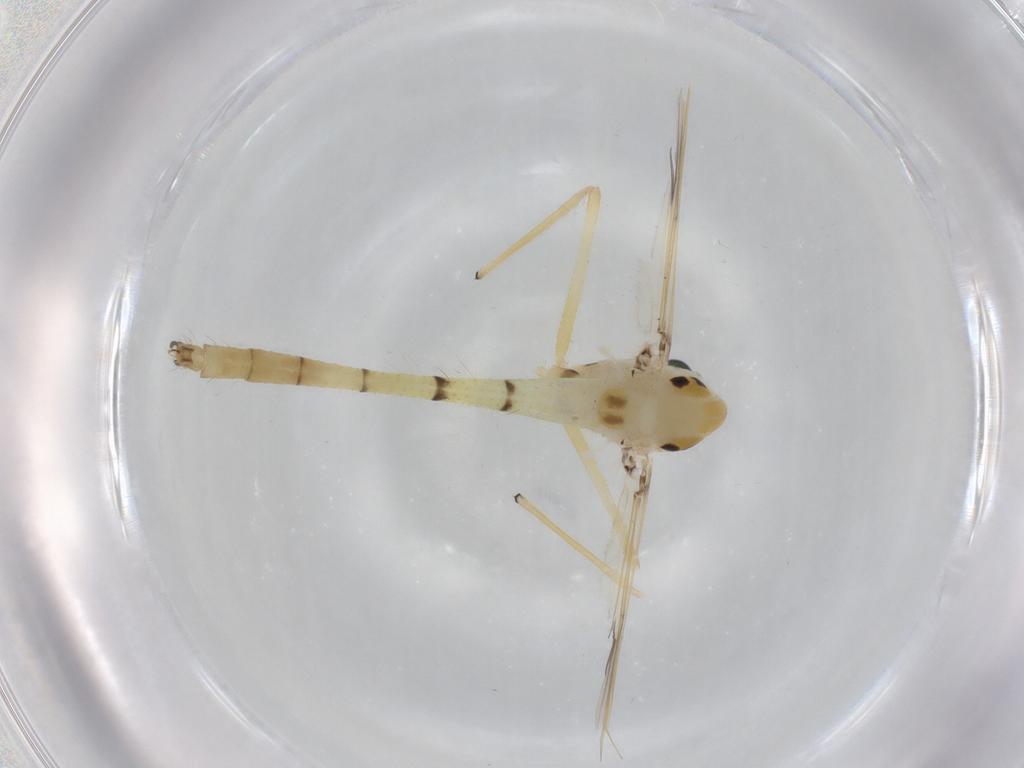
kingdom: Animalia
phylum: Arthropoda
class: Insecta
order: Diptera
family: Chironomidae
